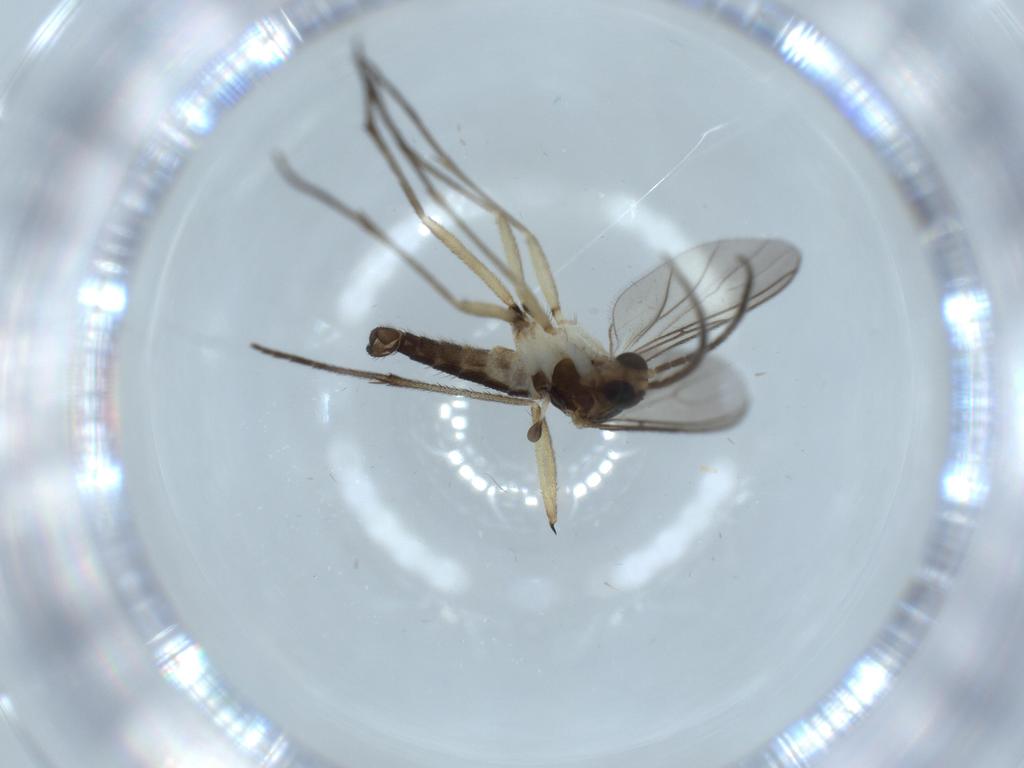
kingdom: Animalia
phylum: Arthropoda
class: Insecta
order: Diptera
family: Sciaridae
